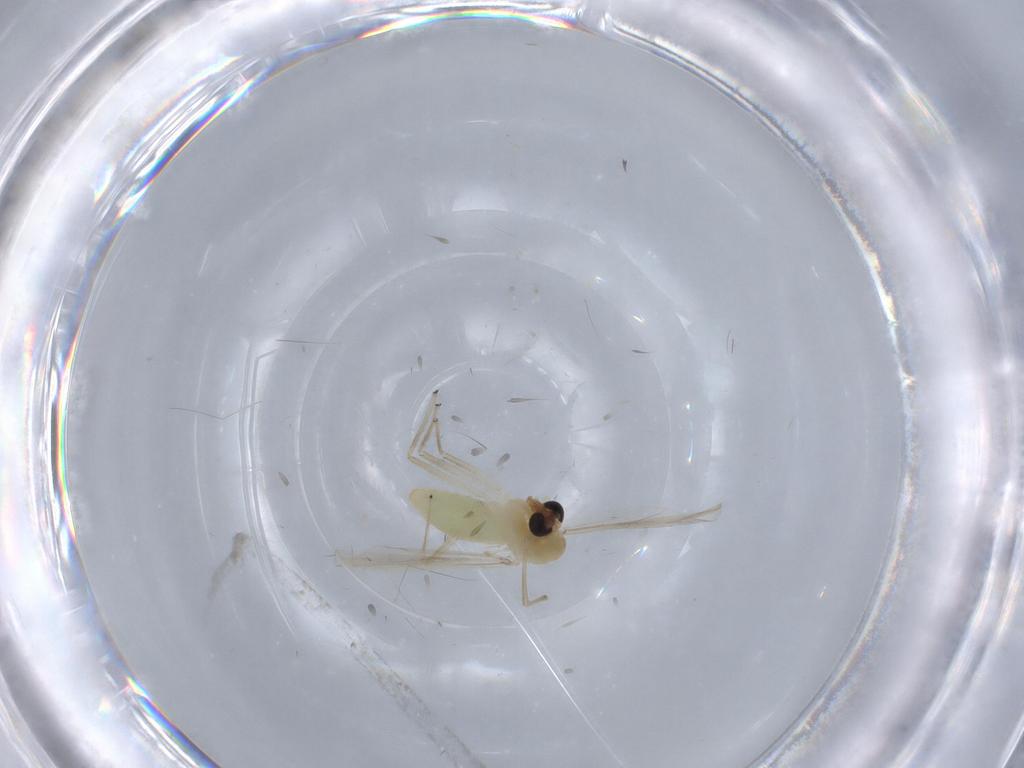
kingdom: Animalia
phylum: Arthropoda
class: Insecta
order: Diptera
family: Chironomidae
